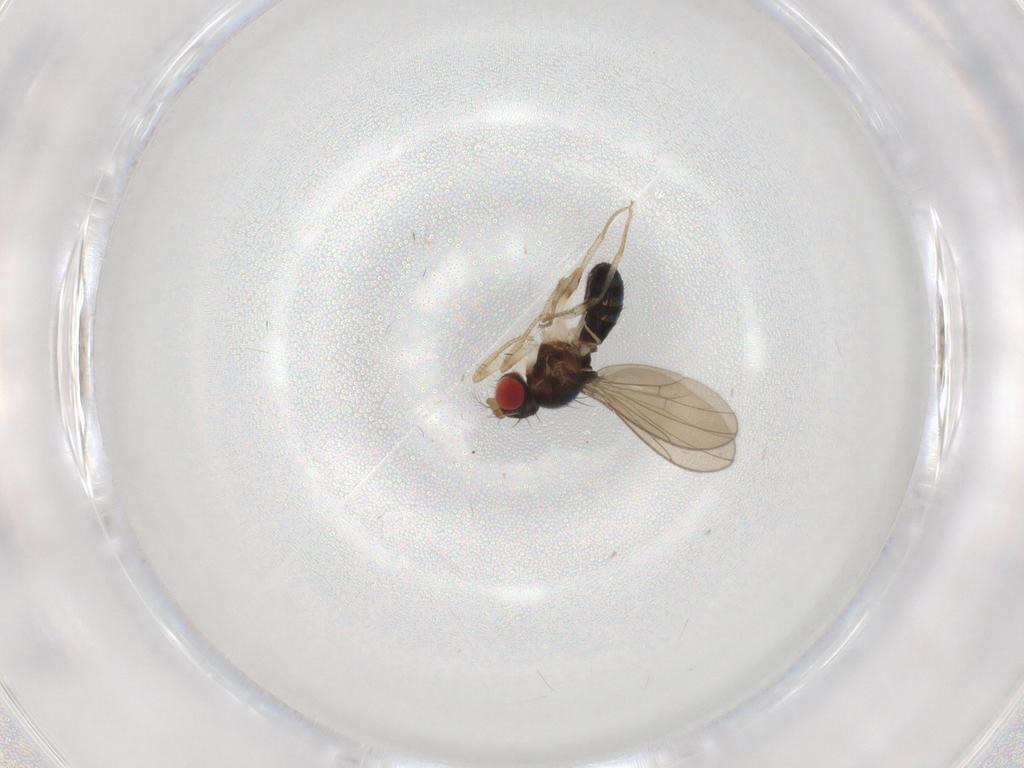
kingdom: Animalia
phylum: Arthropoda
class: Insecta
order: Diptera
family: Drosophilidae
